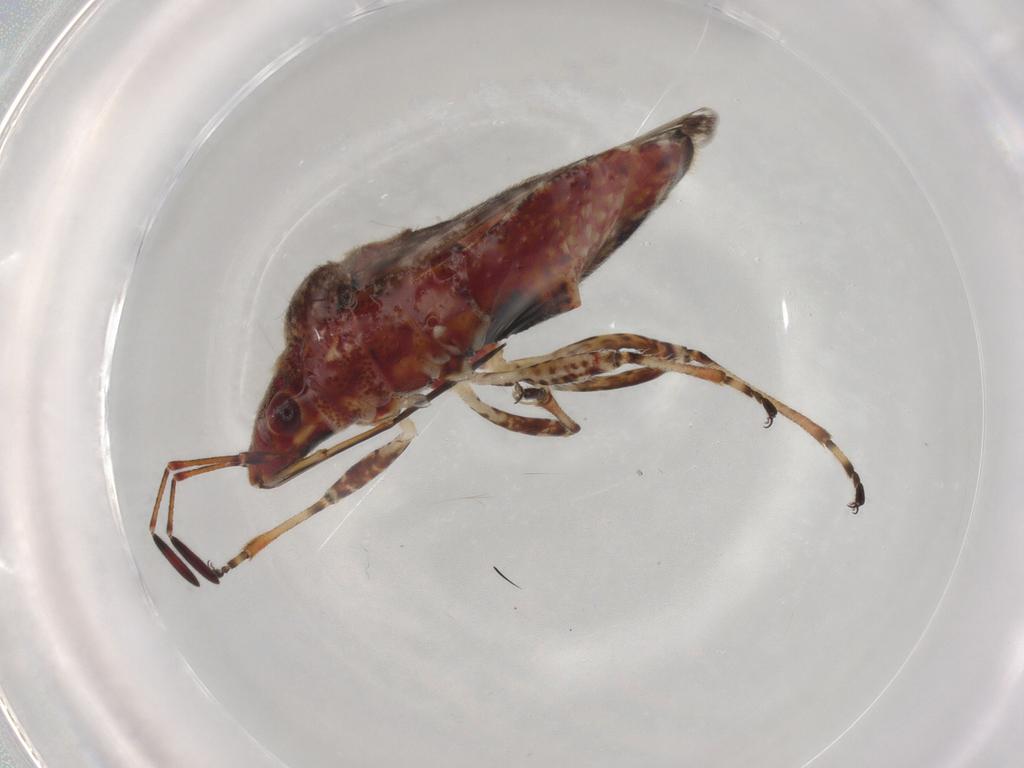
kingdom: Animalia
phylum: Arthropoda
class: Insecta
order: Hemiptera
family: Lygaeidae
